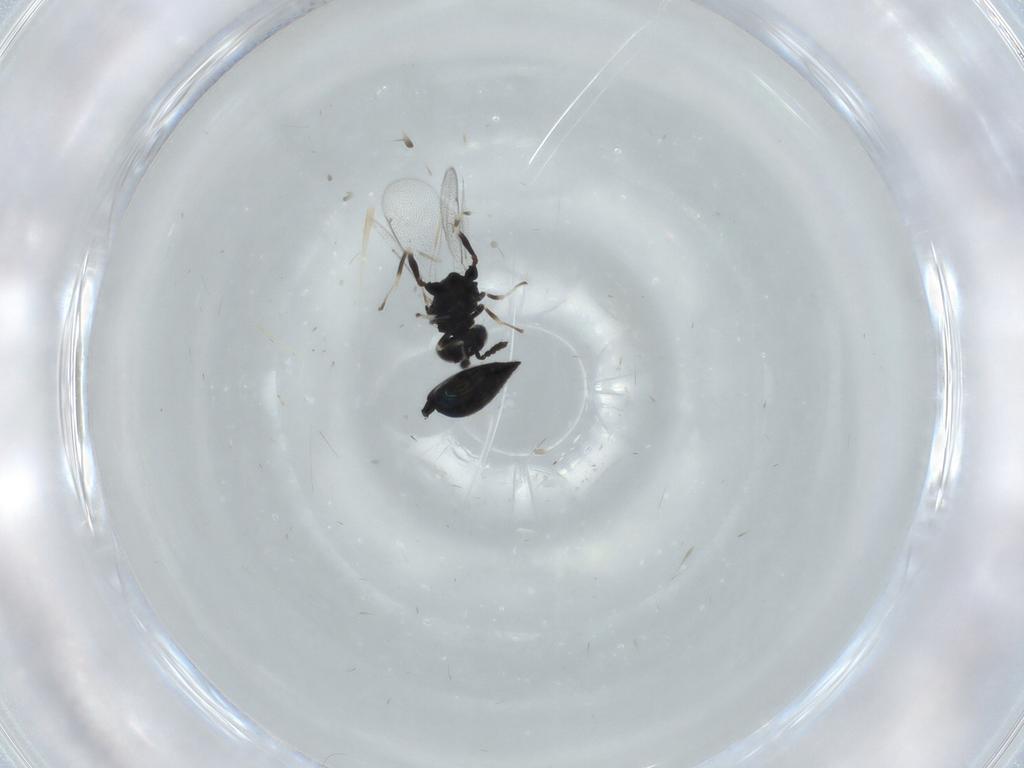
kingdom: Animalia
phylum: Arthropoda
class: Insecta
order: Hymenoptera
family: Eulophidae
